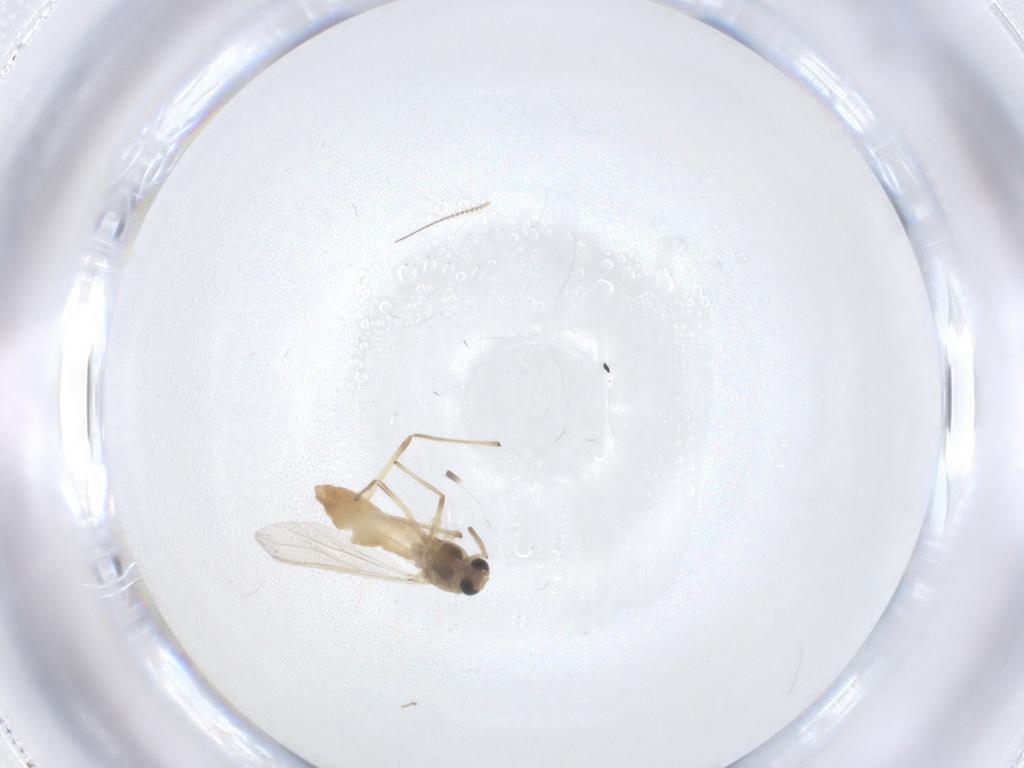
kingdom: Animalia
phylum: Arthropoda
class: Insecta
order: Diptera
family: Chironomidae
